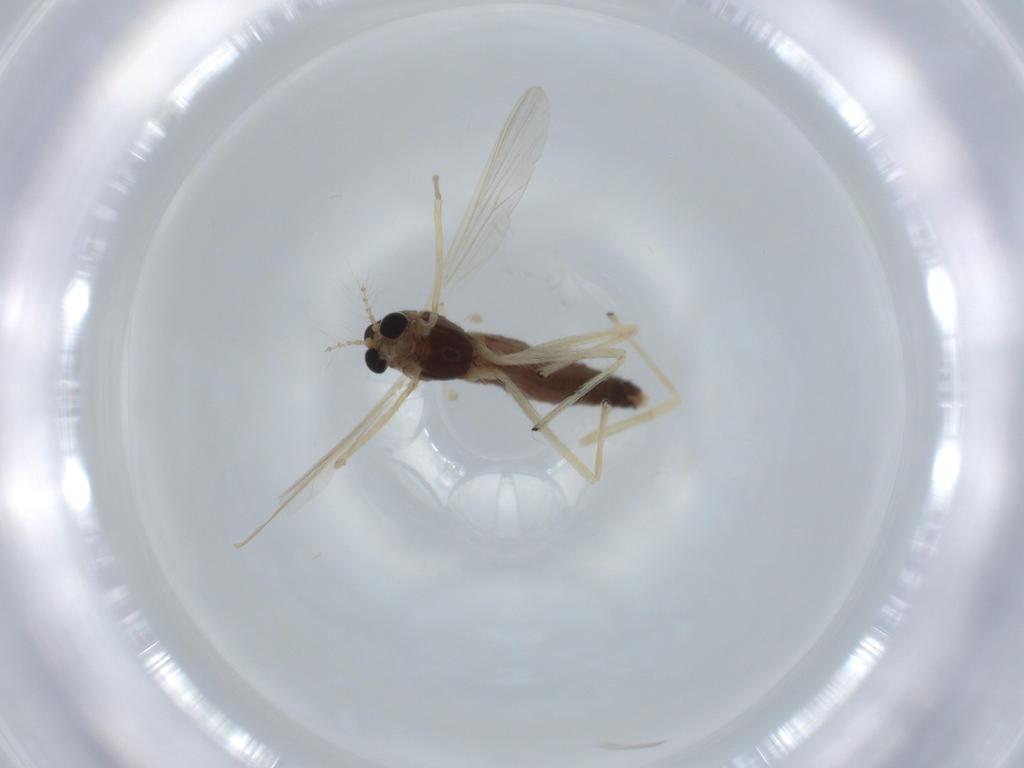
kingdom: Animalia
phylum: Arthropoda
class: Insecta
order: Diptera
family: Chironomidae
